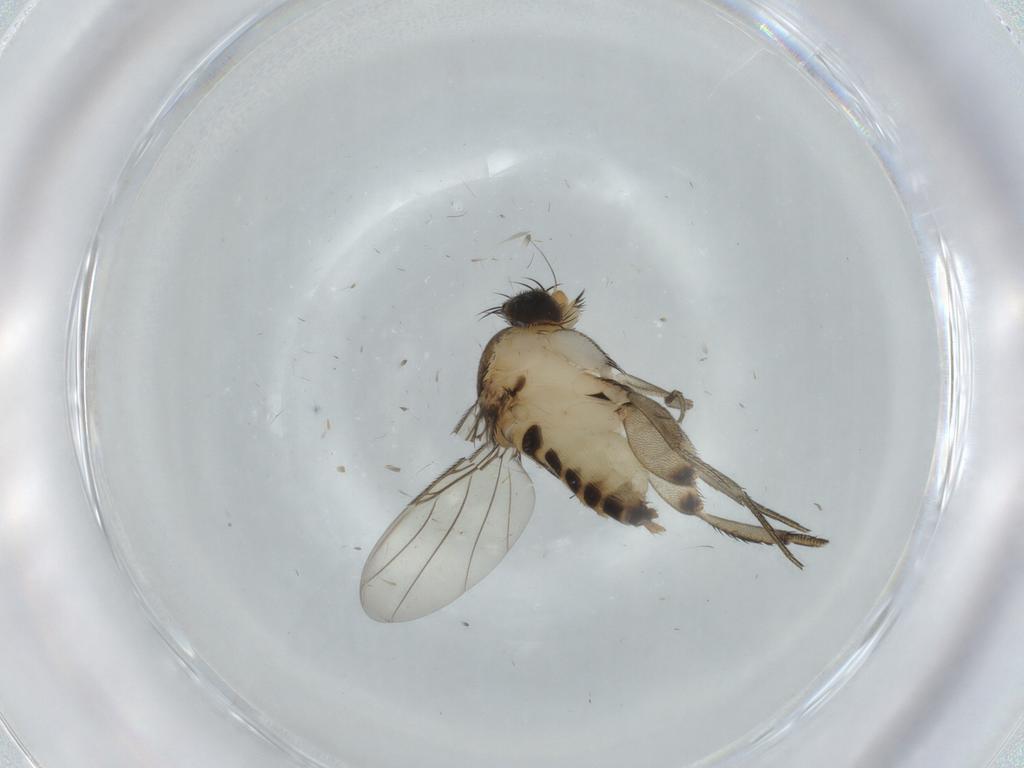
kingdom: Animalia
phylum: Arthropoda
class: Insecta
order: Diptera
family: Phoridae
